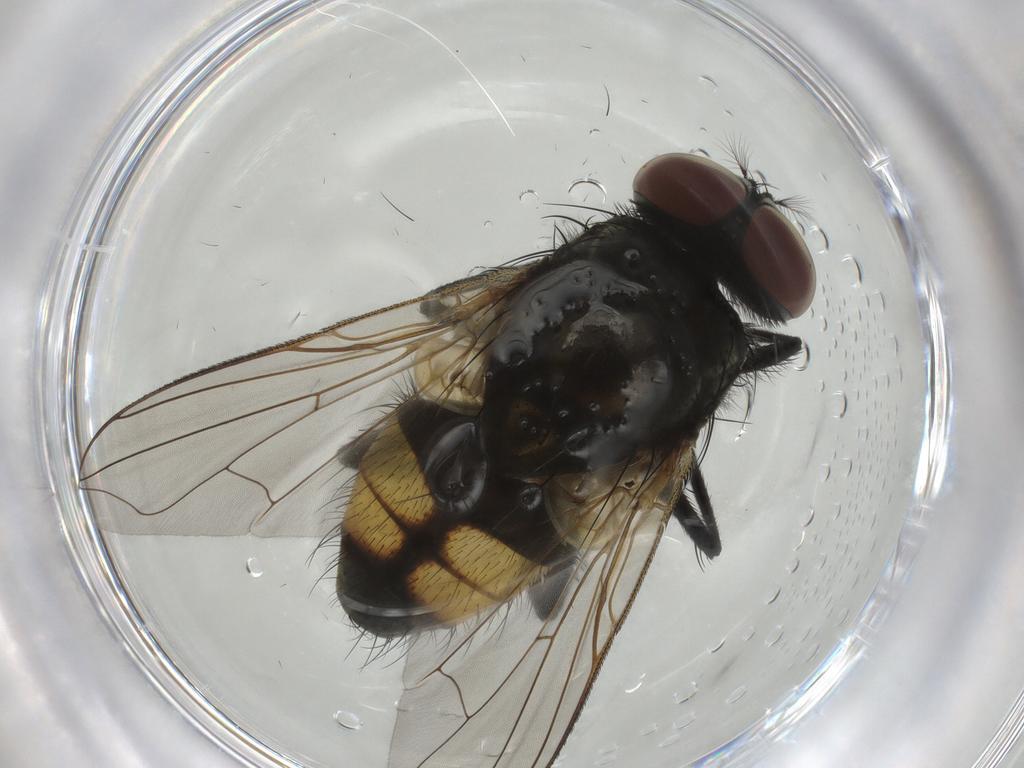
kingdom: Animalia
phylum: Arthropoda
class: Insecta
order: Diptera
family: Muscidae
